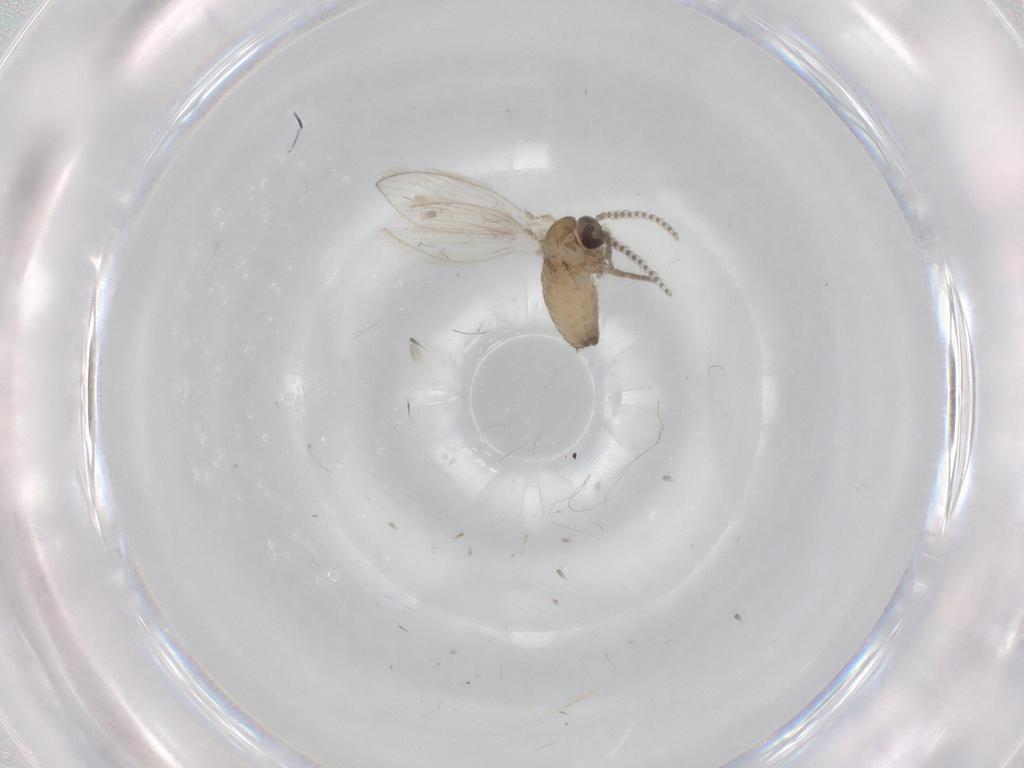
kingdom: Animalia
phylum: Arthropoda
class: Insecta
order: Diptera
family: Psychodidae
